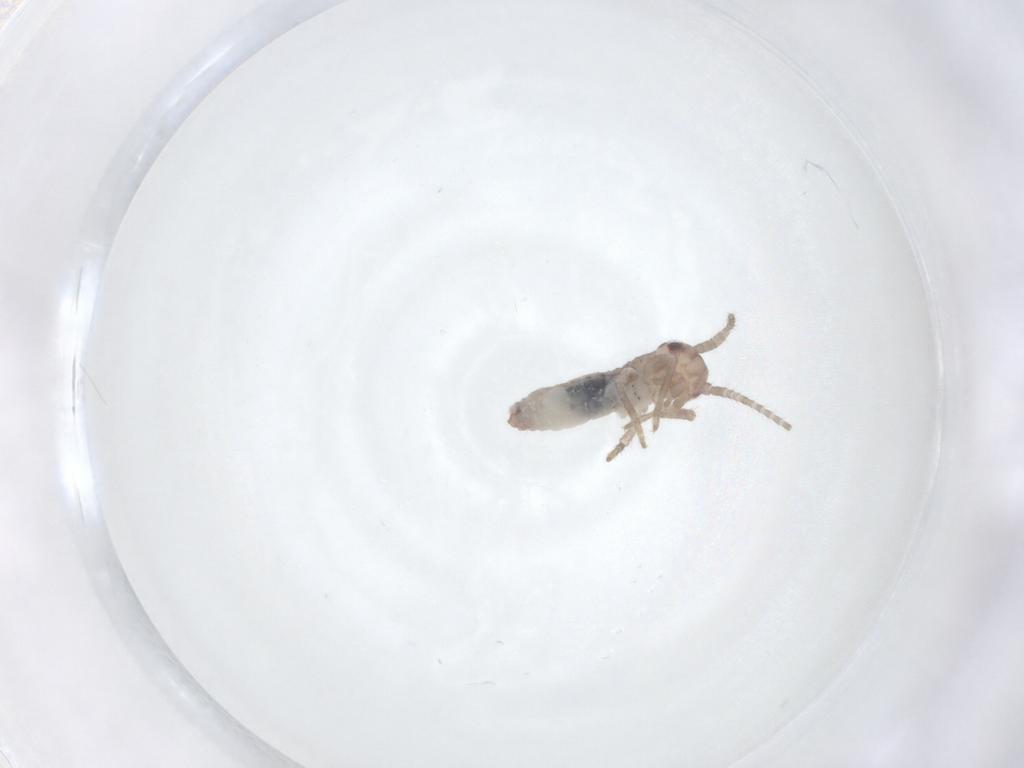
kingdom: Animalia
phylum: Arthropoda
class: Insecta
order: Orthoptera
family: Mogoplistidae
